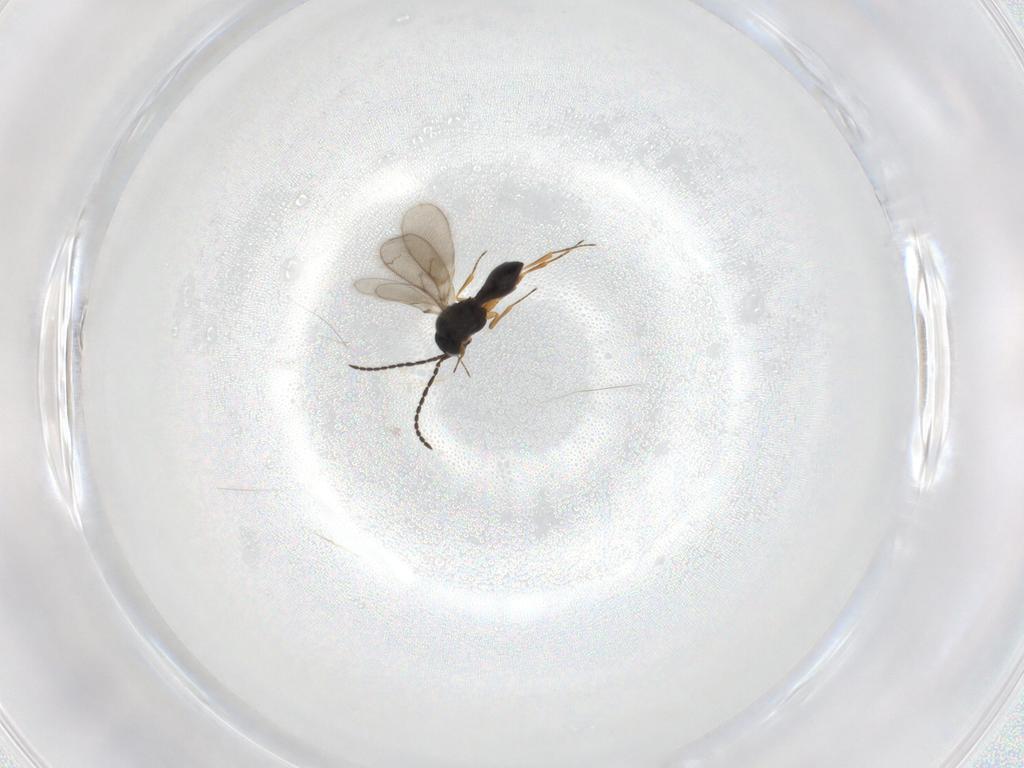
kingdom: Animalia
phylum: Arthropoda
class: Insecta
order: Hymenoptera
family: Scelionidae
